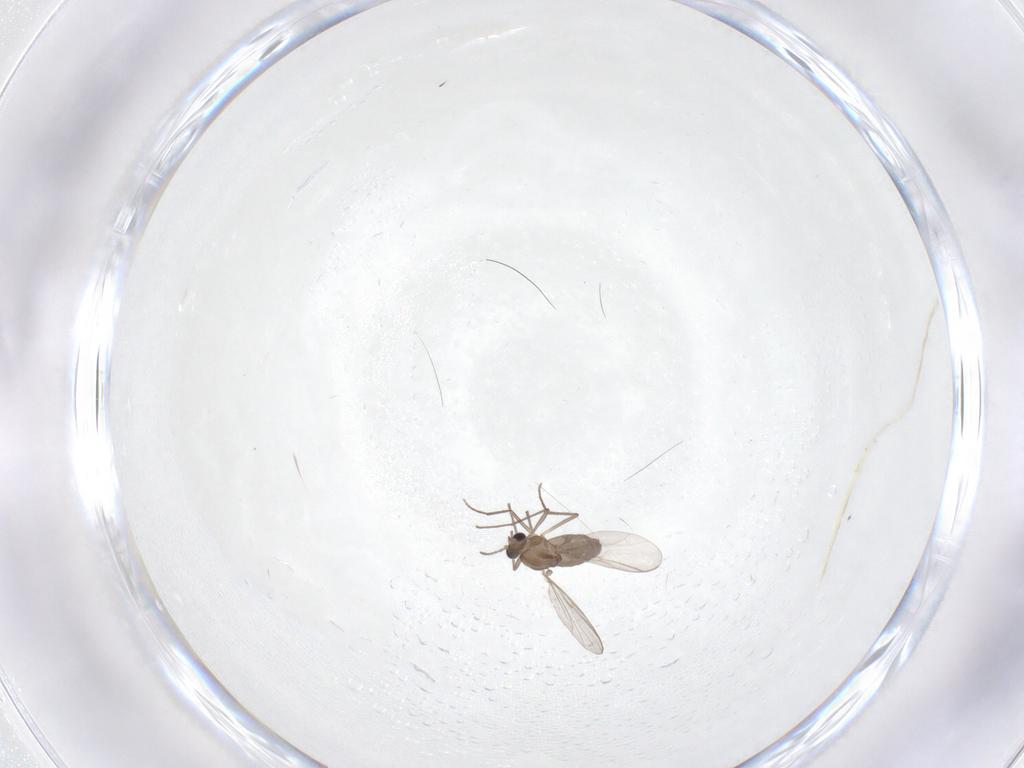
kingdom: Animalia
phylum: Arthropoda
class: Insecta
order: Diptera
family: Chironomidae
